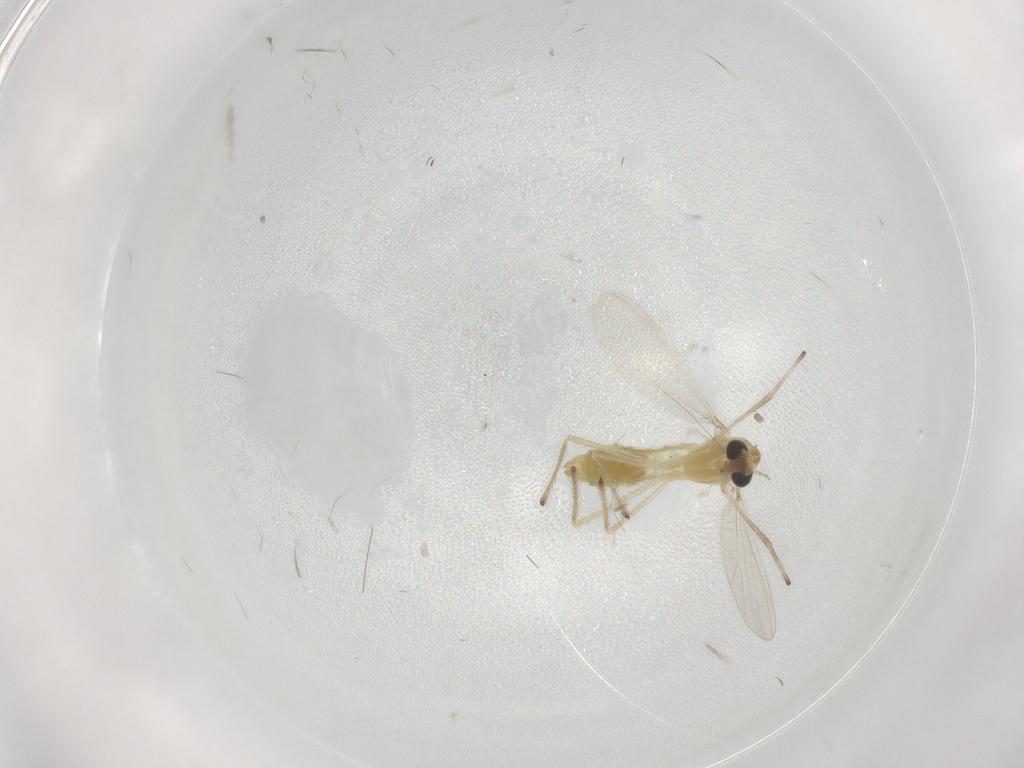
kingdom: Animalia
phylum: Arthropoda
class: Insecta
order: Diptera
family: Chironomidae
